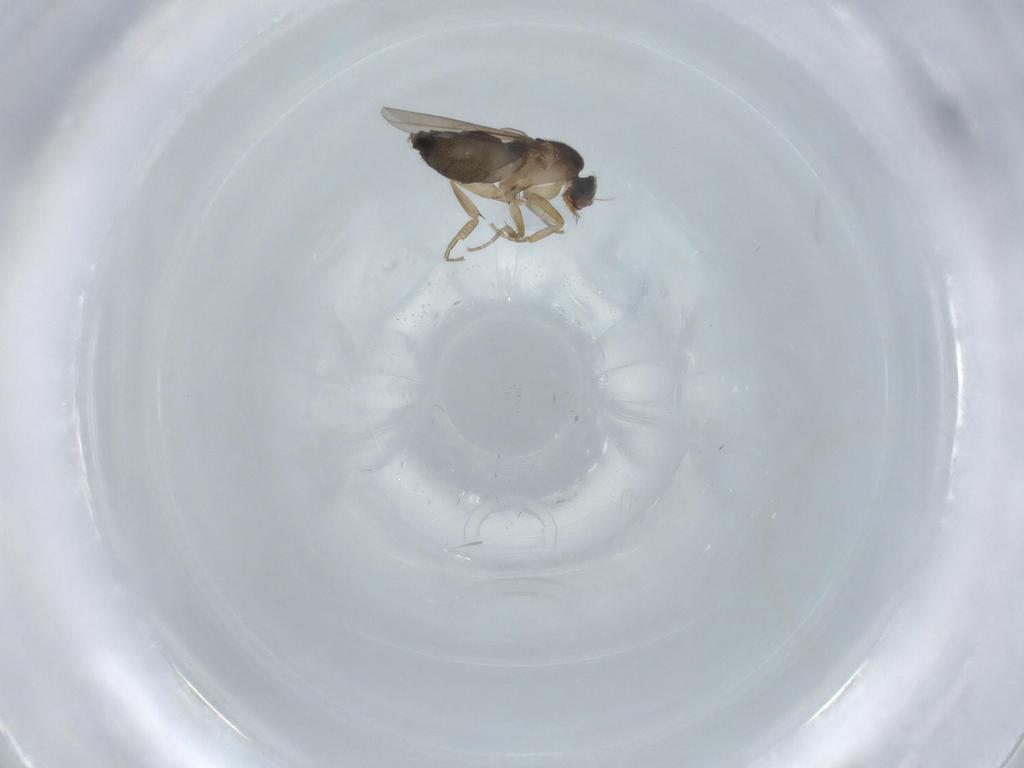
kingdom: Animalia
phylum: Arthropoda
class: Insecta
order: Diptera
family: Phoridae
